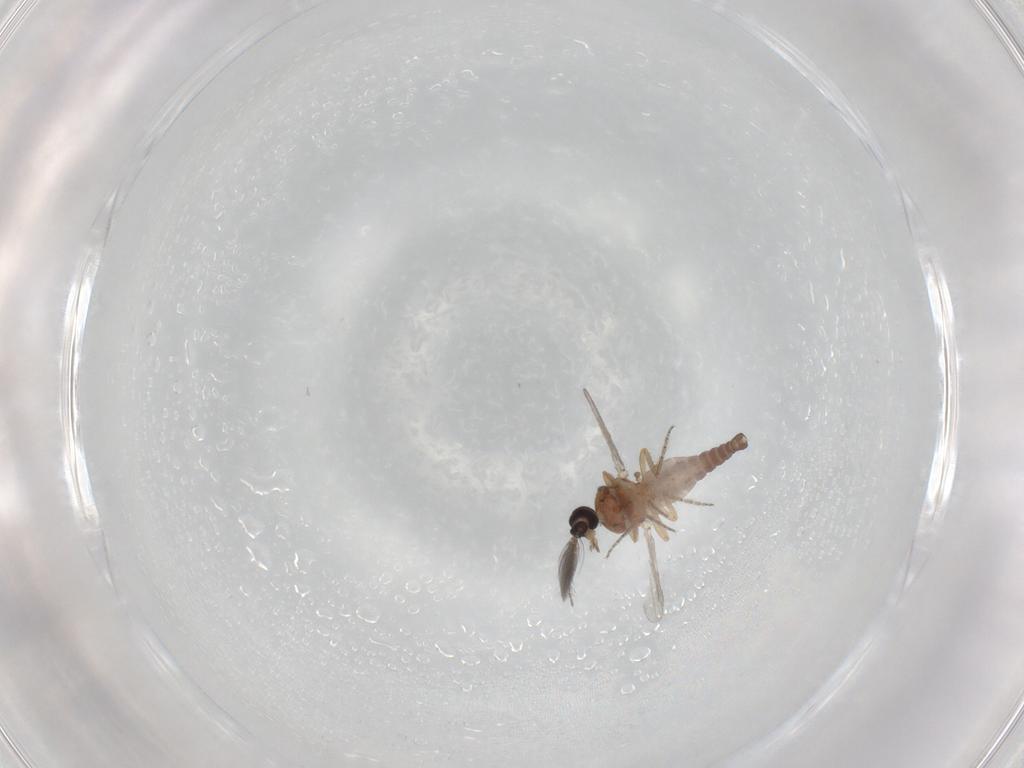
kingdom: Animalia
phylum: Arthropoda
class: Insecta
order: Diptera
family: Ceratopogonidae
